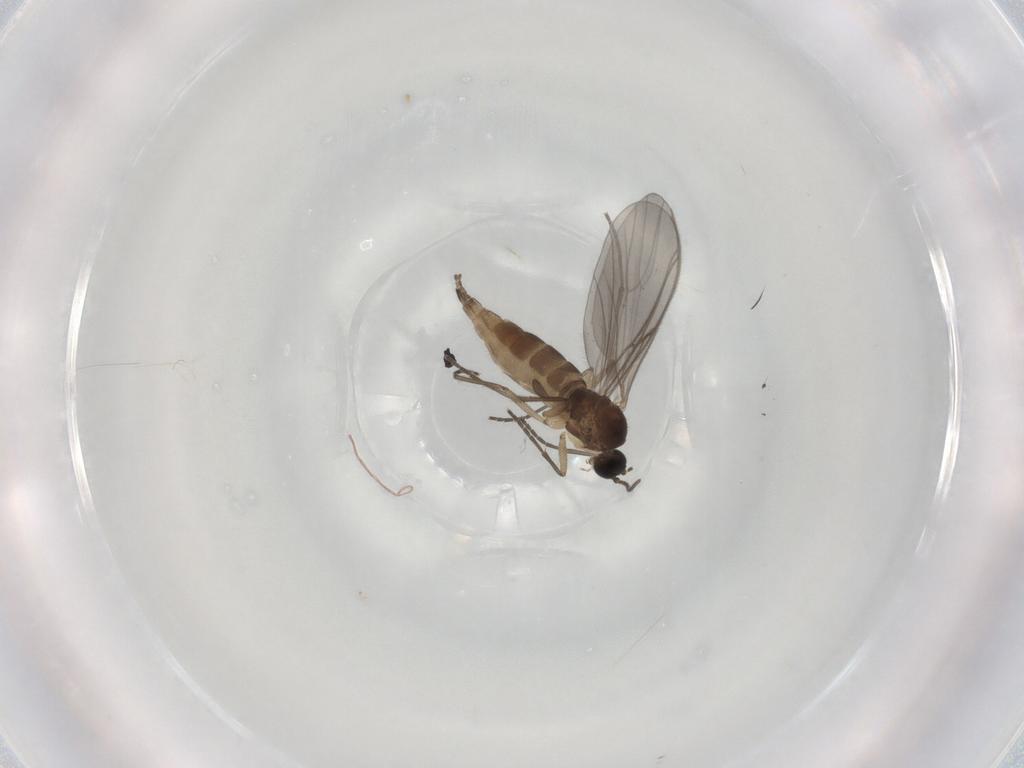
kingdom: Animalia
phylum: Arthropoda
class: Insecta
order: Diptera
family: Sciaridae
